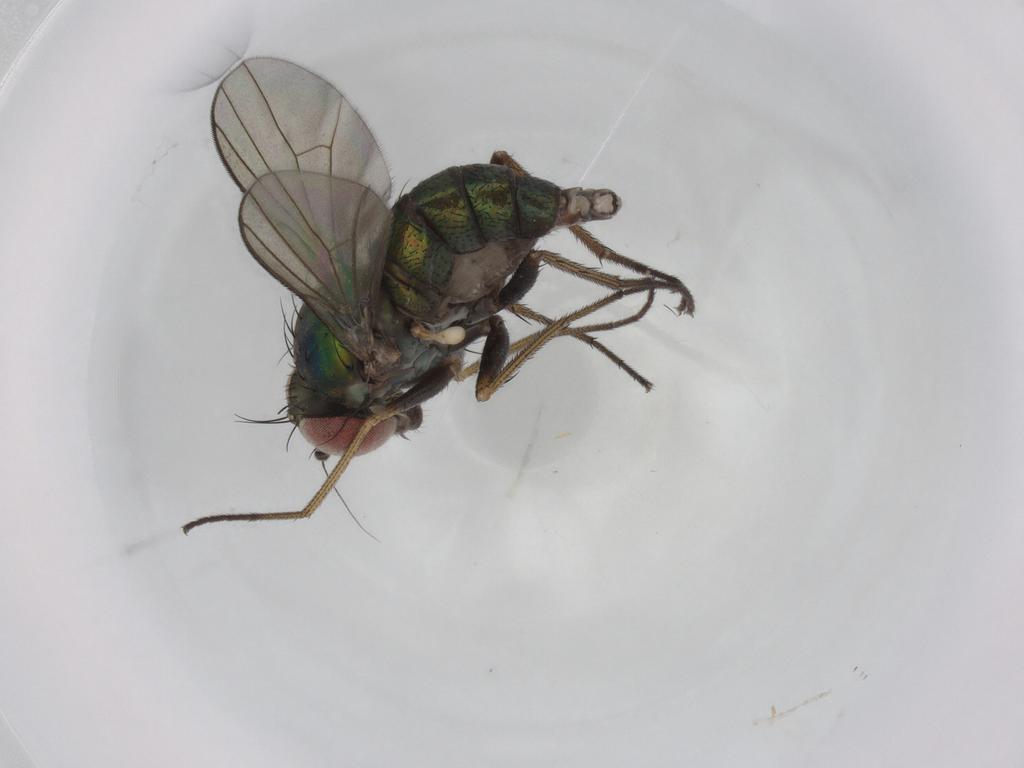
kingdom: Animalia
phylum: Arthropoda
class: Insecta
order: Diptera
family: Dolichopodidae
